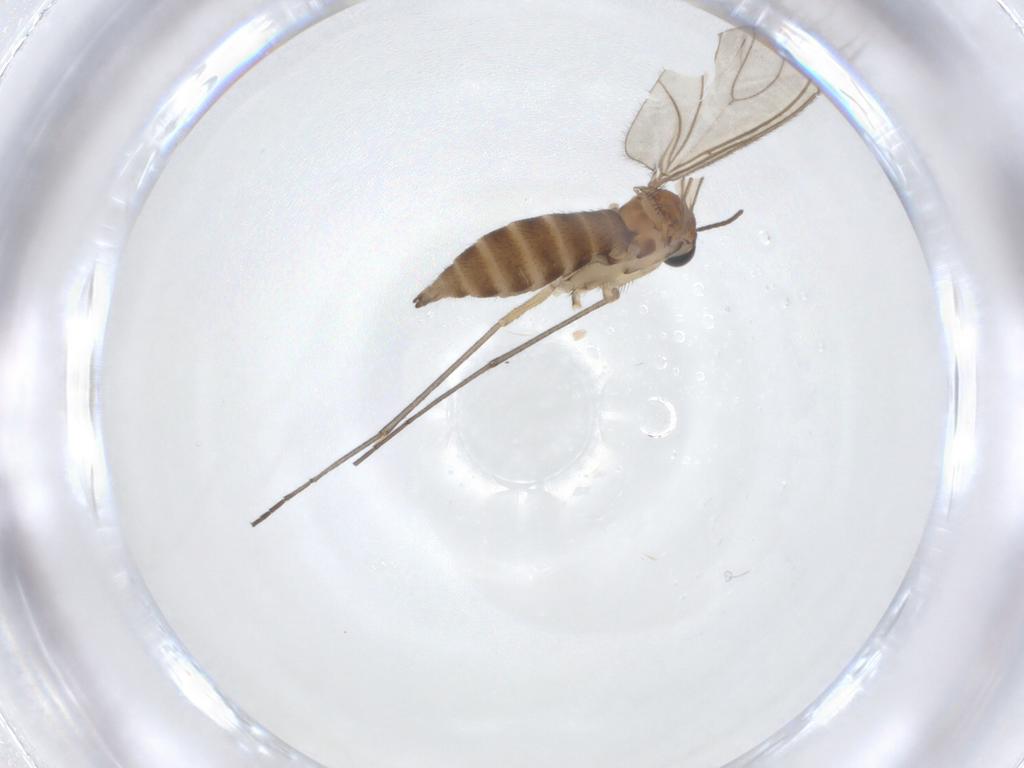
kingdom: Animalia
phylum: Arthropoda
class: Insecta
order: Diptera
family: Sciaridae
